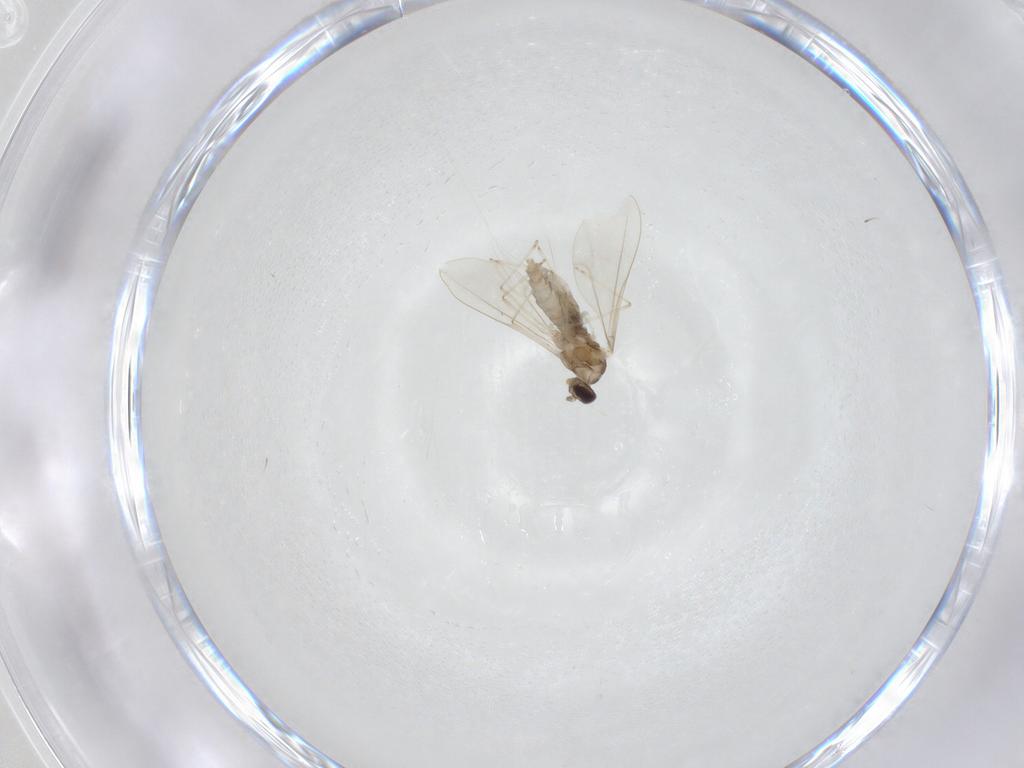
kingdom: Animalia
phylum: Arthropoda
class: Insecta
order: Diptera
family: Cecidomyiidae
